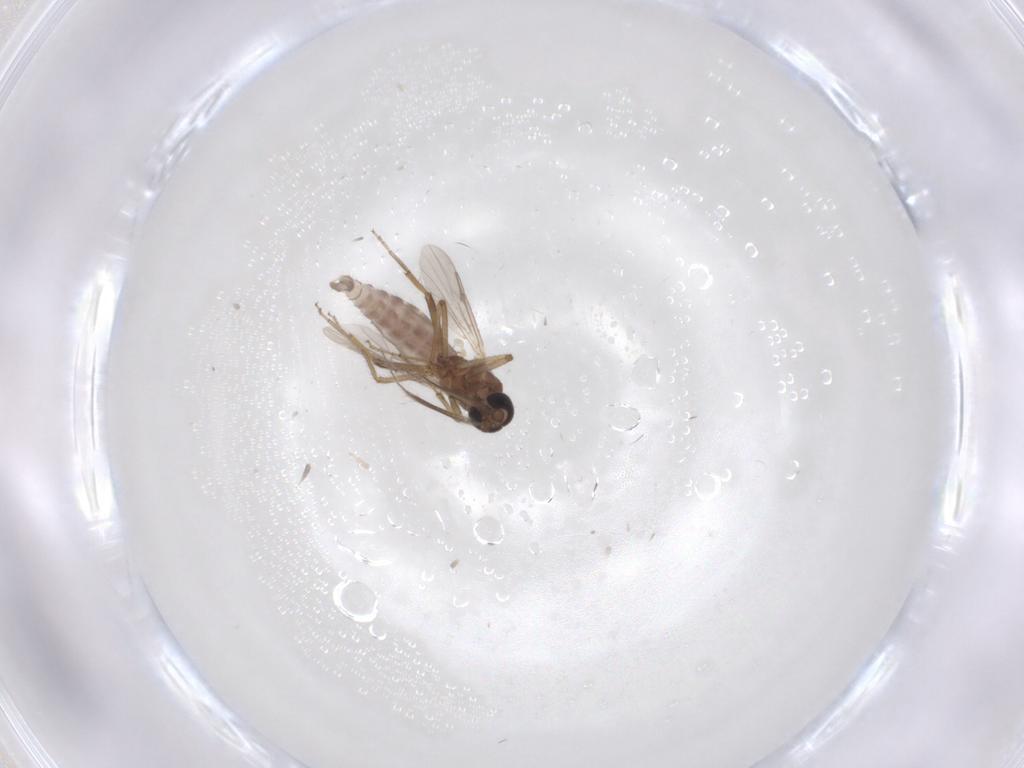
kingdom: Animalia
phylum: Arthropoda
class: Insecta
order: Diptera
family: Ceratopogonidae
